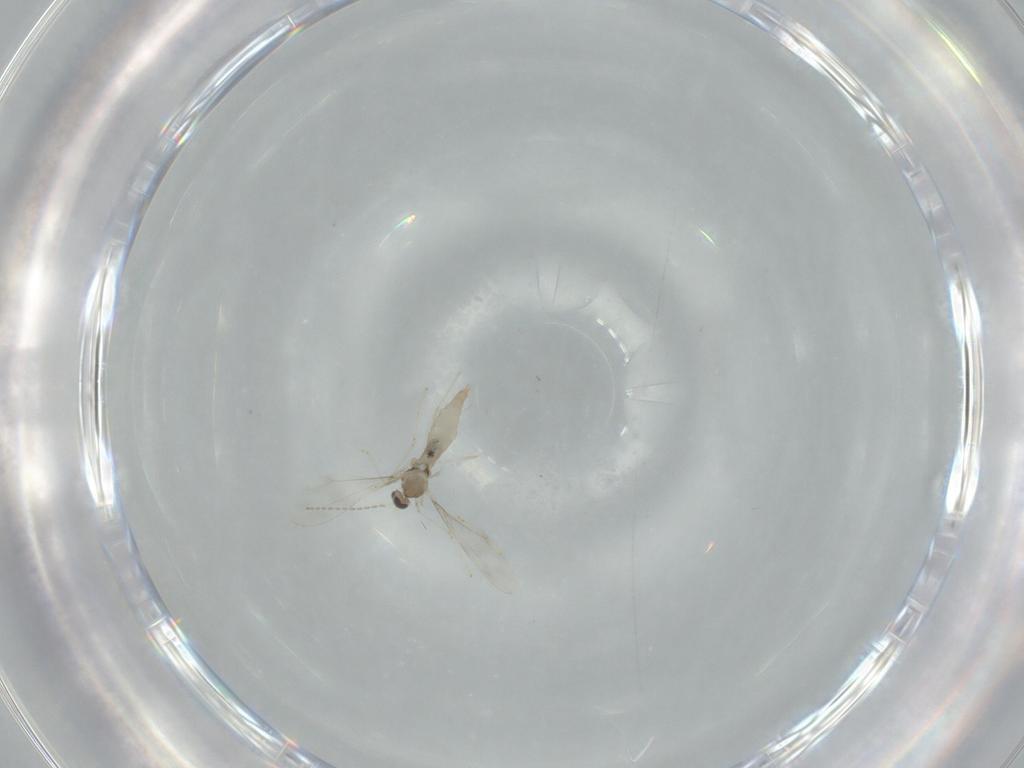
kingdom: Animalia
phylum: Arthropoda
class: Insecta
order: Diptera
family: Cecidomyiidae
